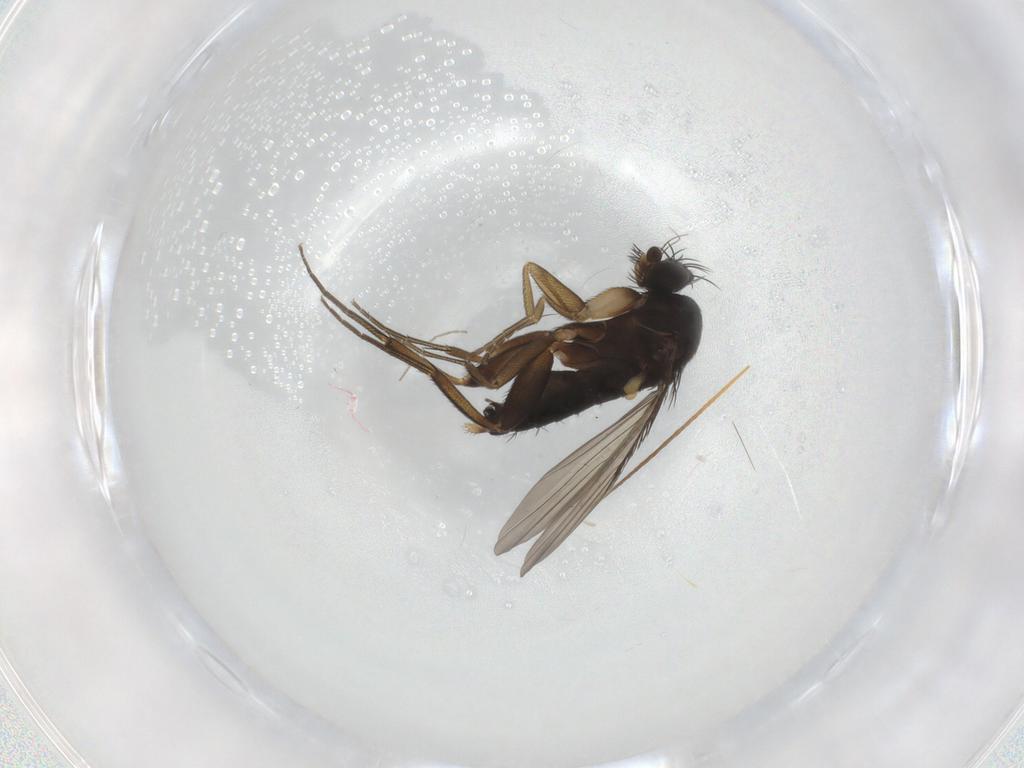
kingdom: Animalia
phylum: Arthropoda
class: Insecta
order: Diptera
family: Phoridae
